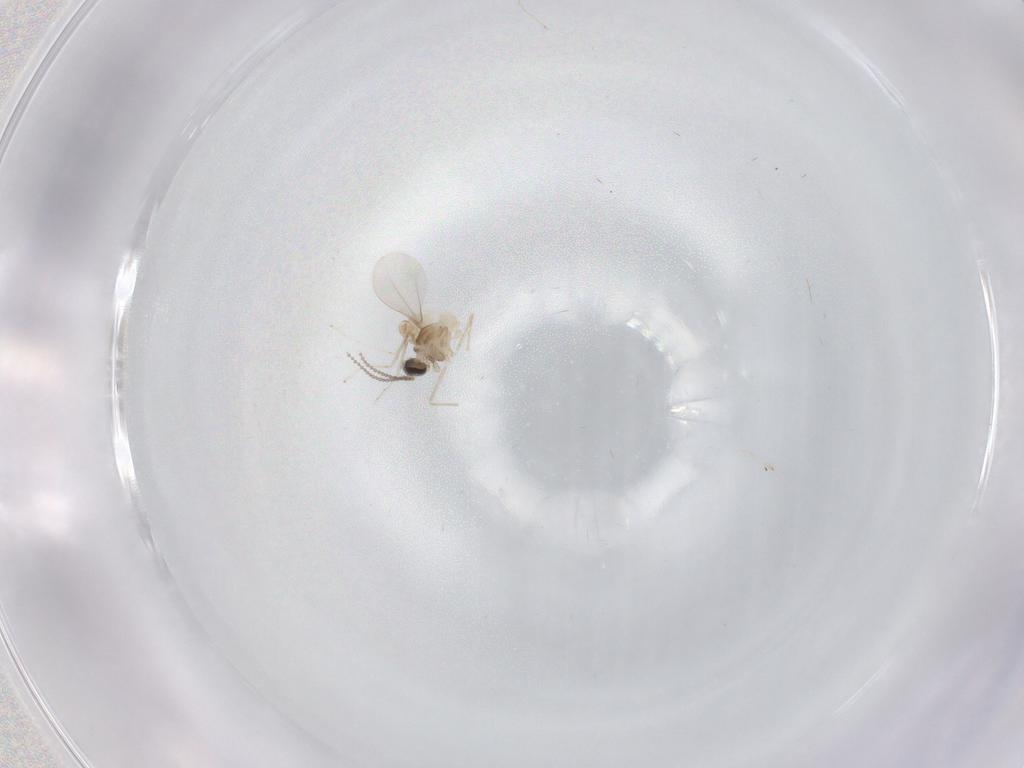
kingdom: Animalia
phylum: Arthropoda
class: Insecta
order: Diptera
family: Cecidomyiidae
